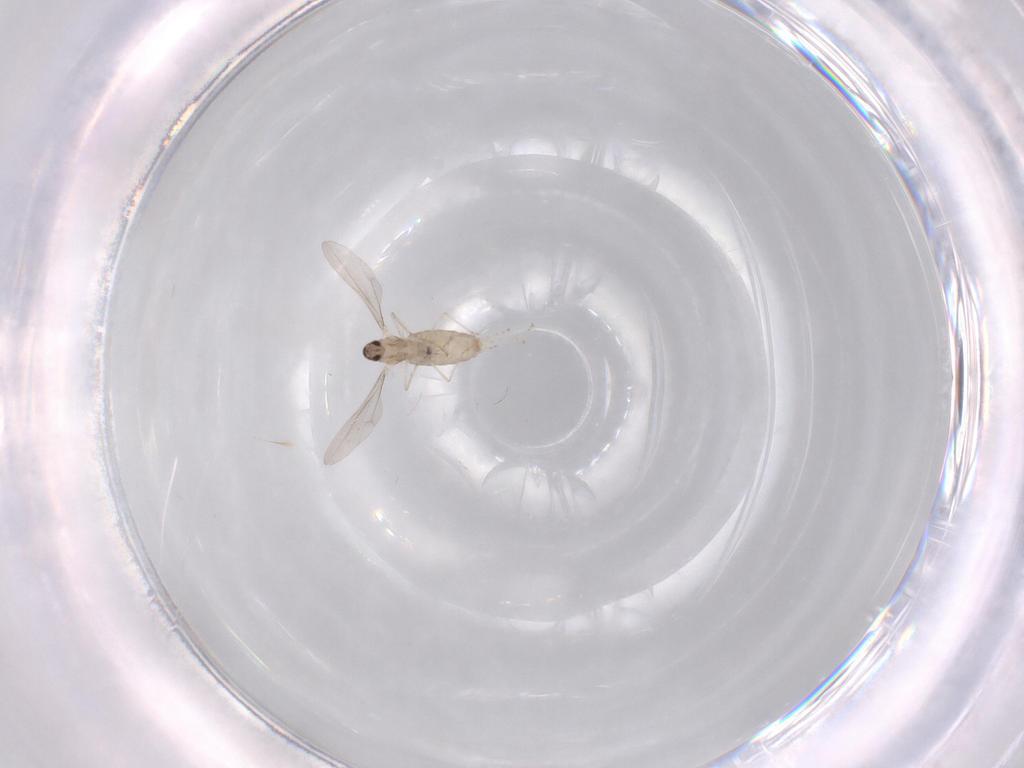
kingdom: Animalia
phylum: Arthropoda
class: Insecta
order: Diptera
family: Cecidomyiidae
